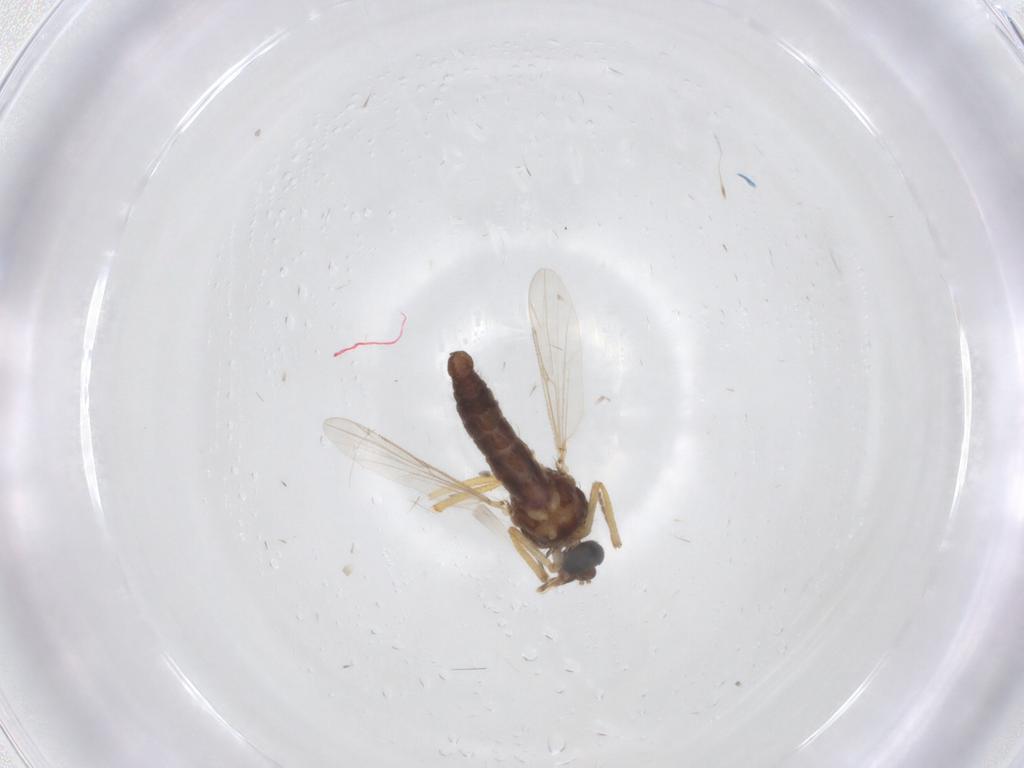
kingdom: Animalia
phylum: Arthropoda
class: Insecta
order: Diptera
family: Ceratopogonidae
